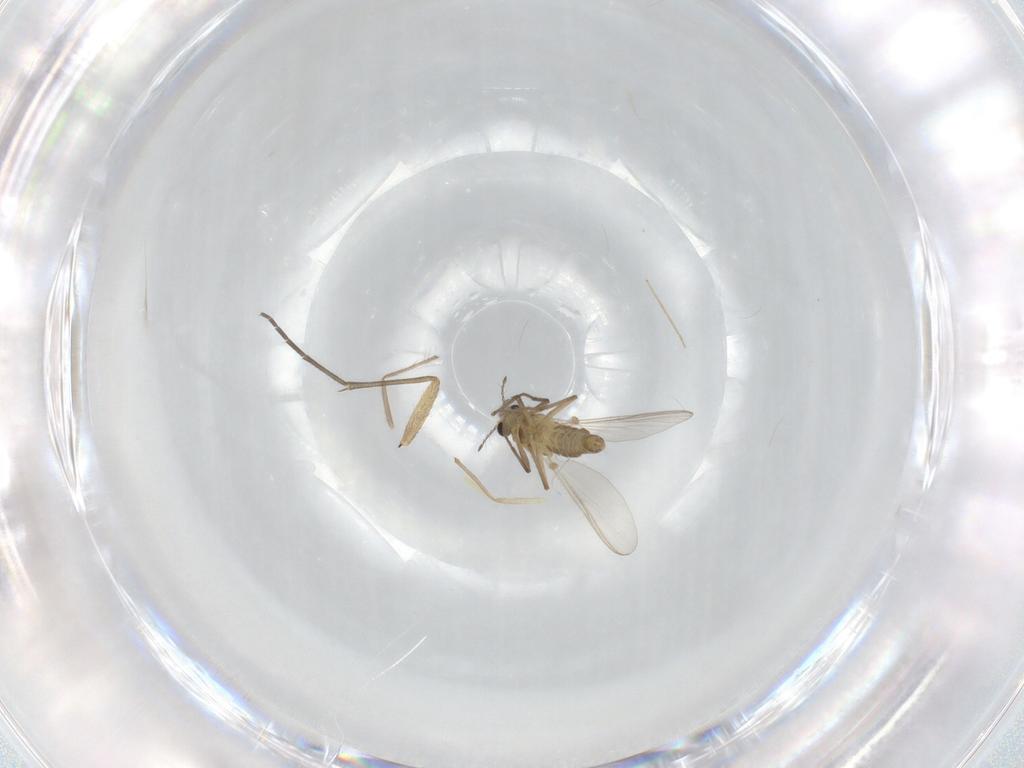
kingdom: Animalia
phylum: Arthropoda
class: Insecta
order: Diptera
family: Chironomidae
